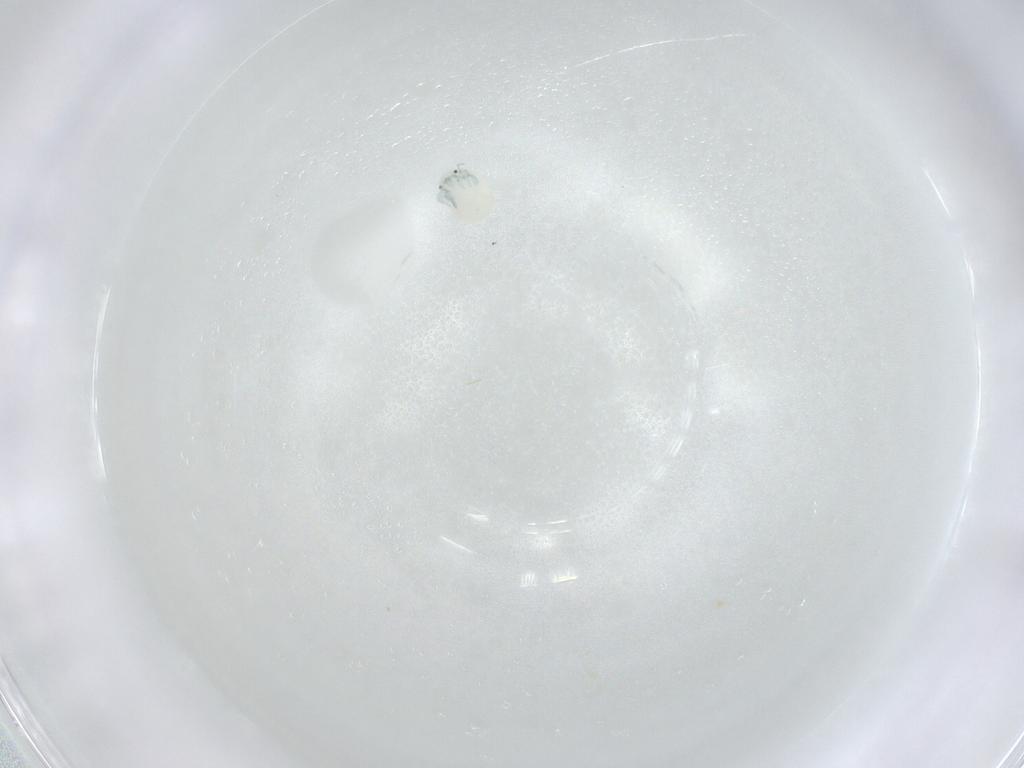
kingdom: Animalia
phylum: Arthropoda
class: Arachnida
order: Trombidiformes
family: Arrenuridae
